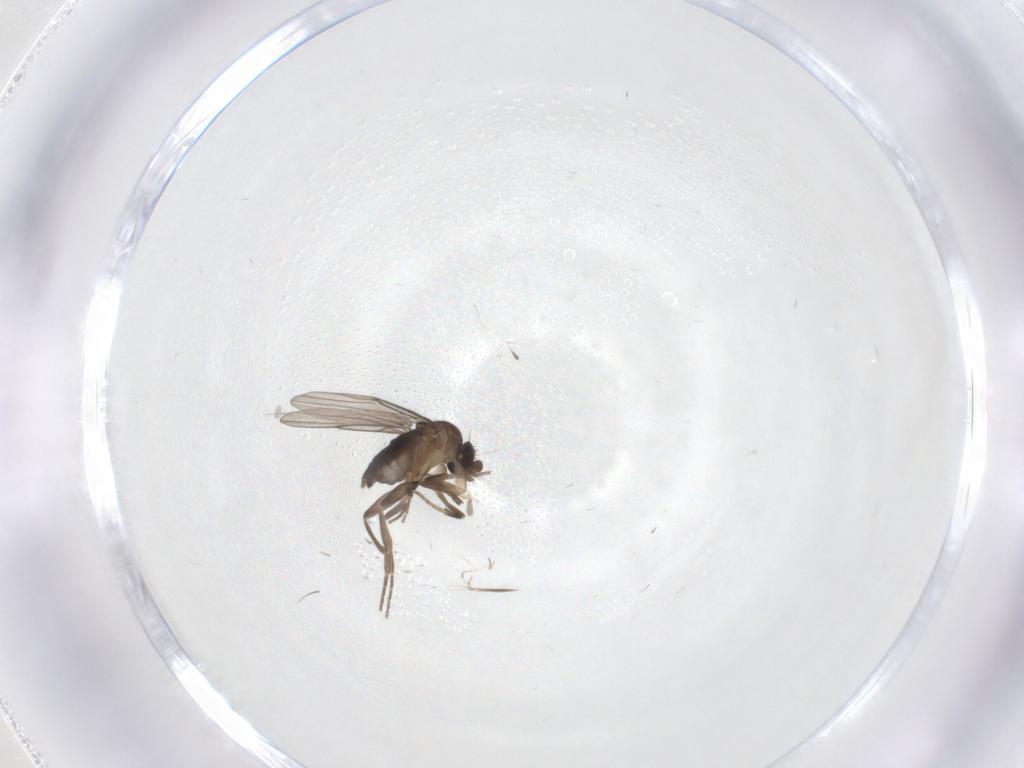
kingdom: Animalia
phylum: Arthropoda
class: Insecta
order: Diptera
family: Phoridae
